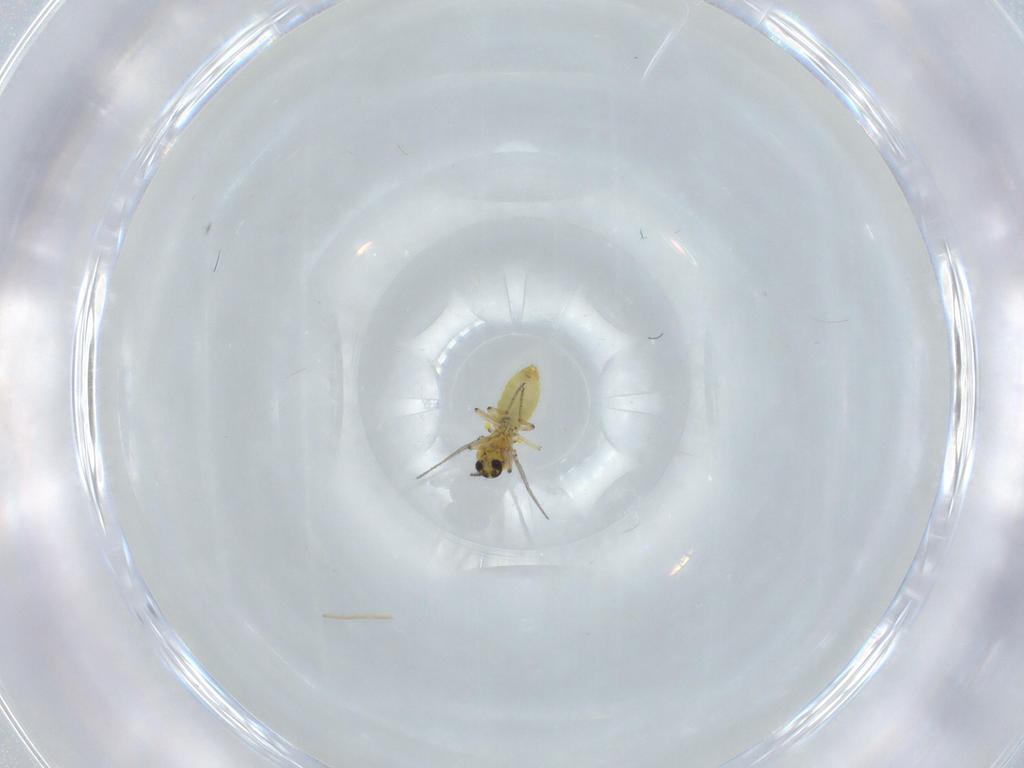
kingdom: Animalia
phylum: Arthropoda
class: Insecta
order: Diptera
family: Ceratopogonidae
